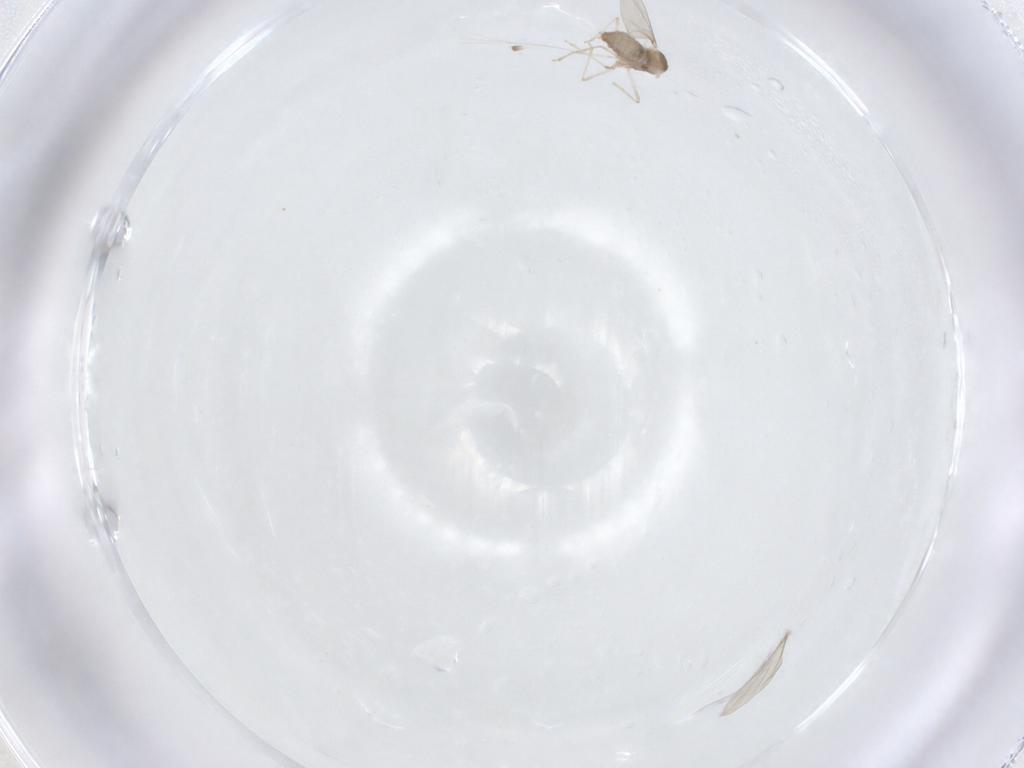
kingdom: Animalia
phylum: Arthropoda
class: Insecta
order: Diptera
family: Cecidomyiidae
